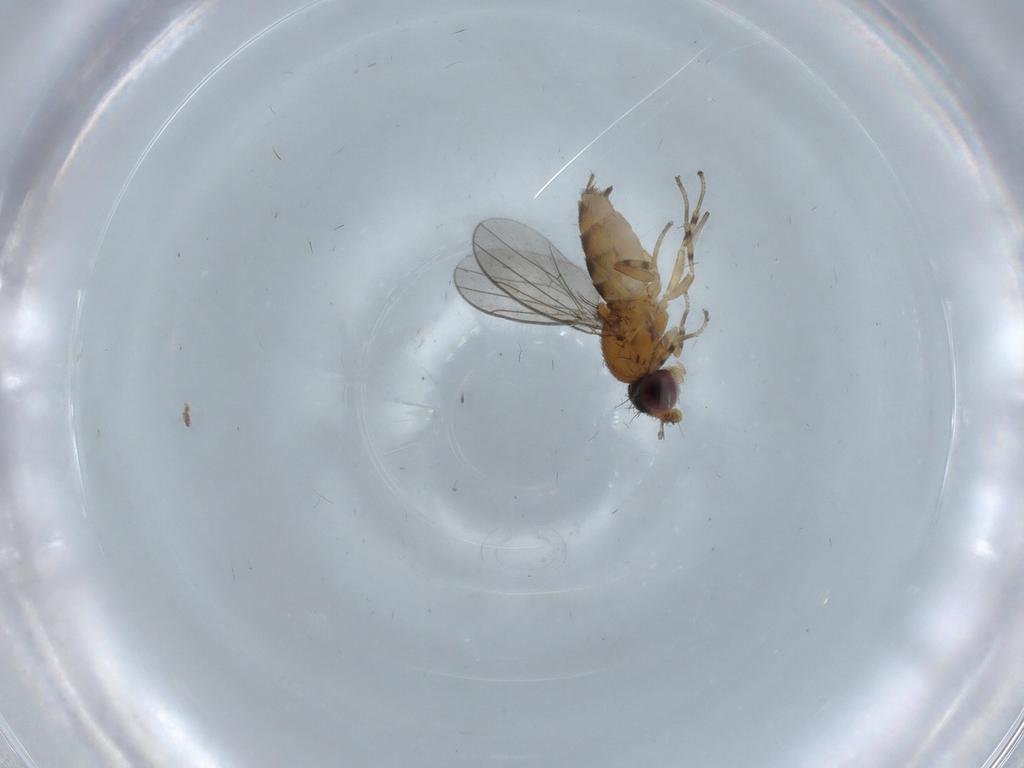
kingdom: Animalia
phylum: Arthropoda
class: Insecta
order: Diptera
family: Chloropidae
